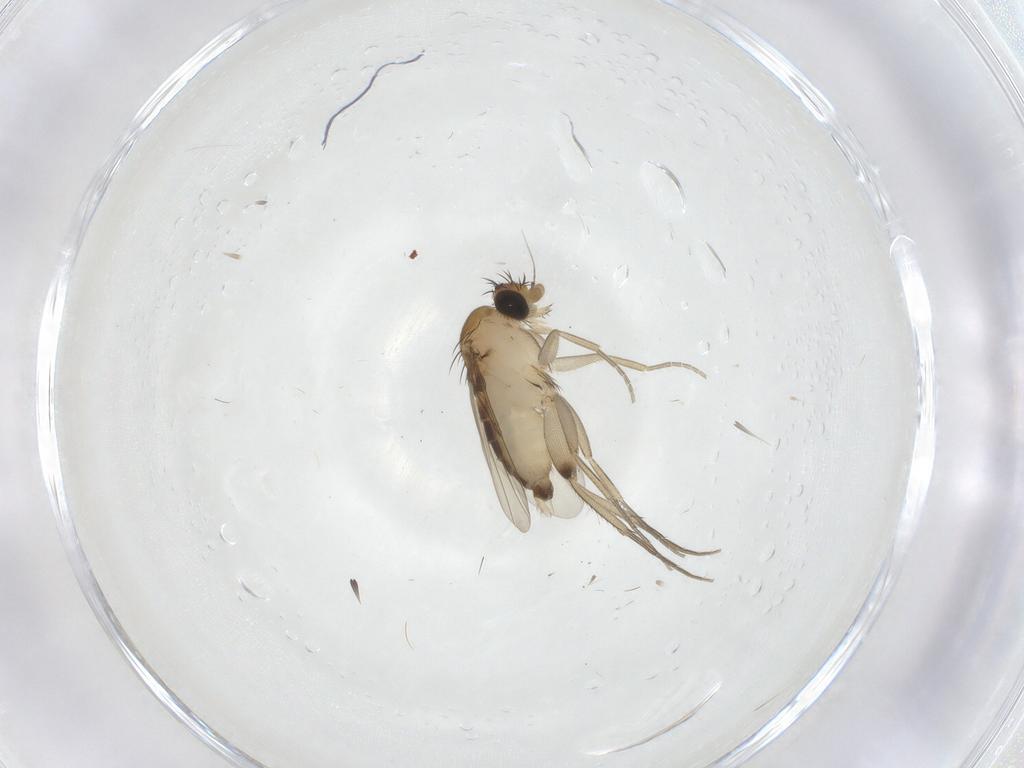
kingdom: Animalia
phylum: Arthropoda
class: Insecta
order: Diptera
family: Phoridae
